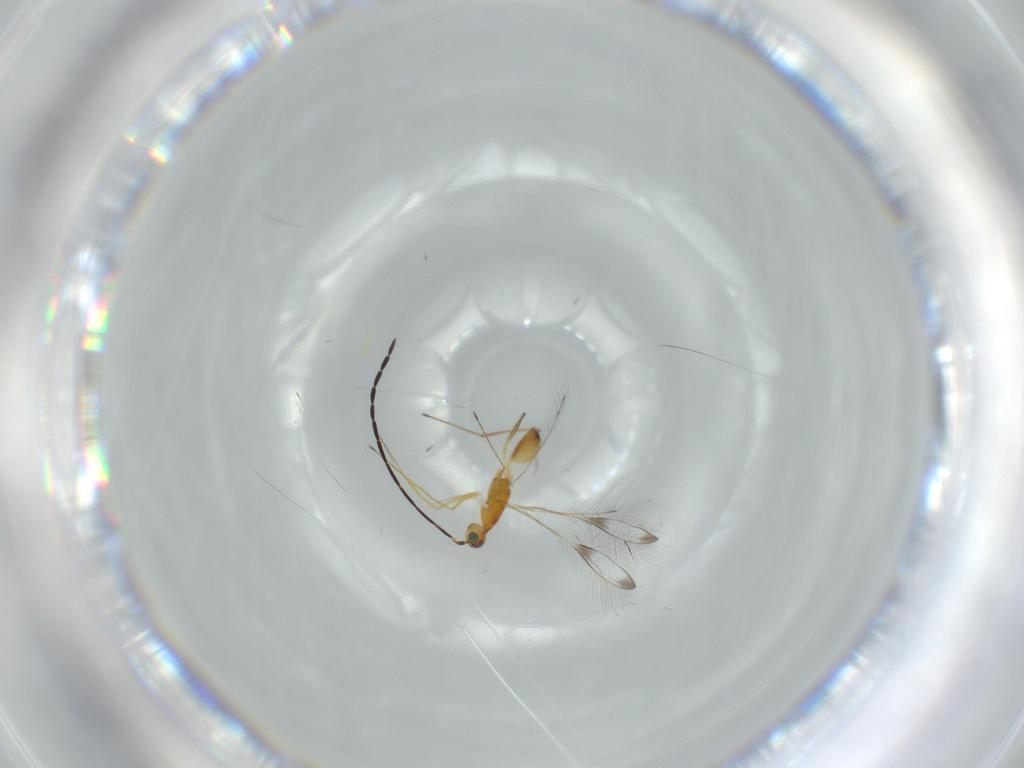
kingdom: Animalia
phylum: Arthropoda
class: Insecta
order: Hymenoptera
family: Mymaridae
